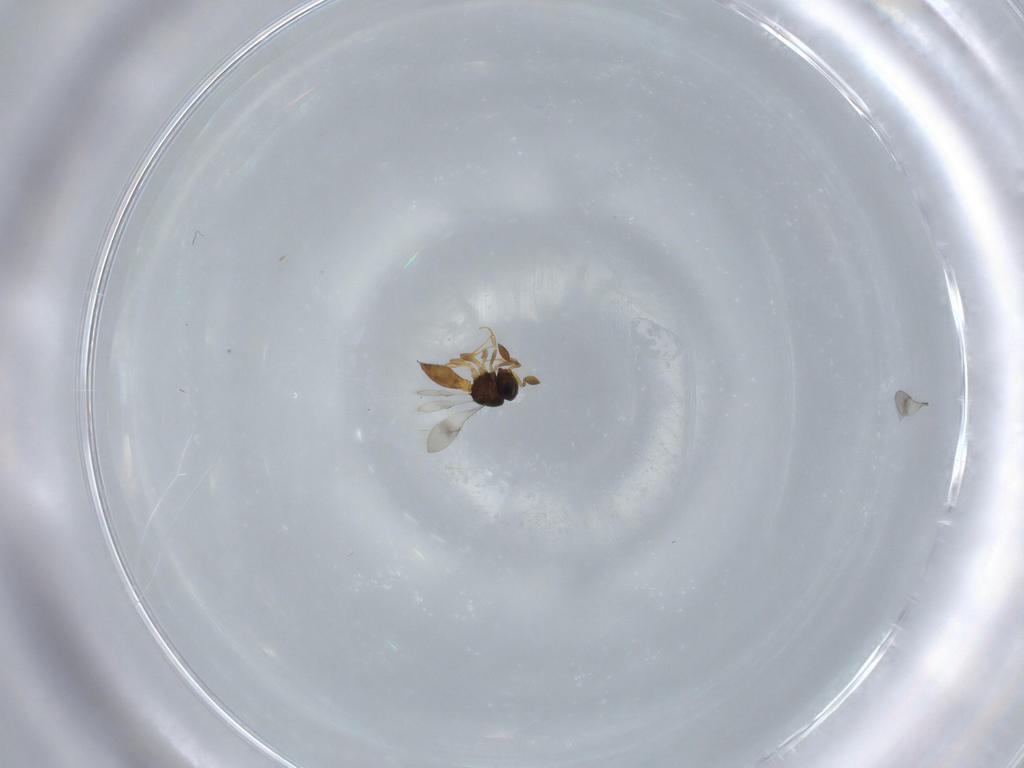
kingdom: Animalia
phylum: Arthropoda
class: Insecta
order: Hymenoptera
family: Scelionidae
